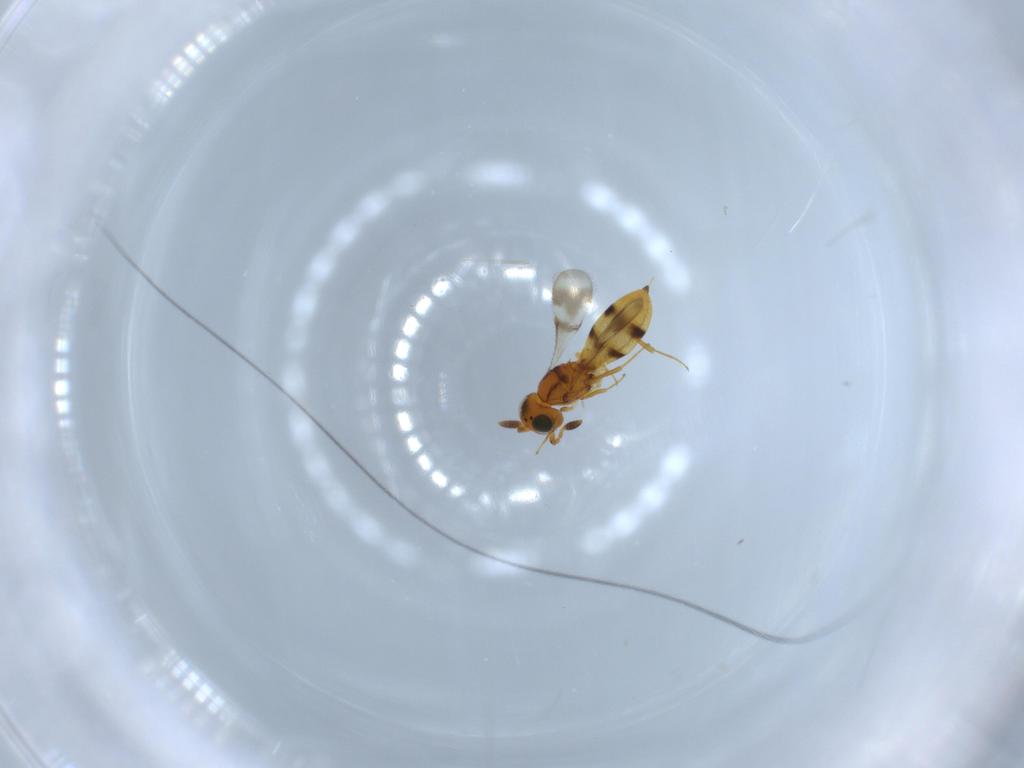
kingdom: Animalia
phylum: Arthropoda
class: Insecta
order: Hymenoptera
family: Scelionidae
